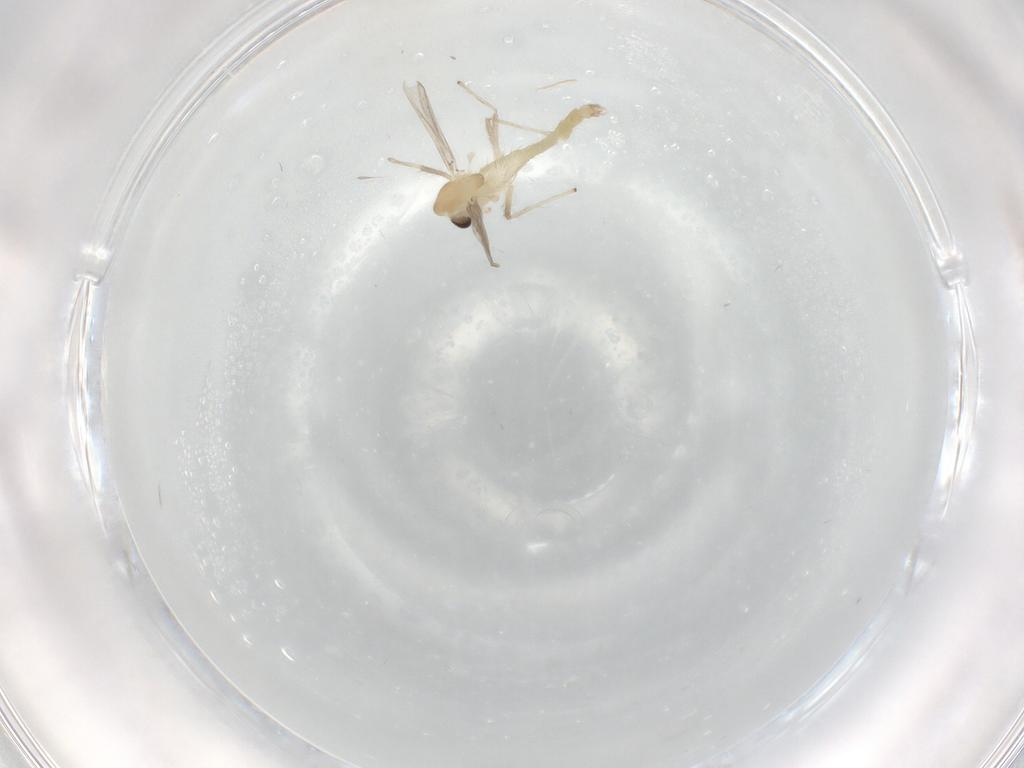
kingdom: Animalia
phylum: Arthropoda
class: Insecta
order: Diptera
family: Chironomidae
